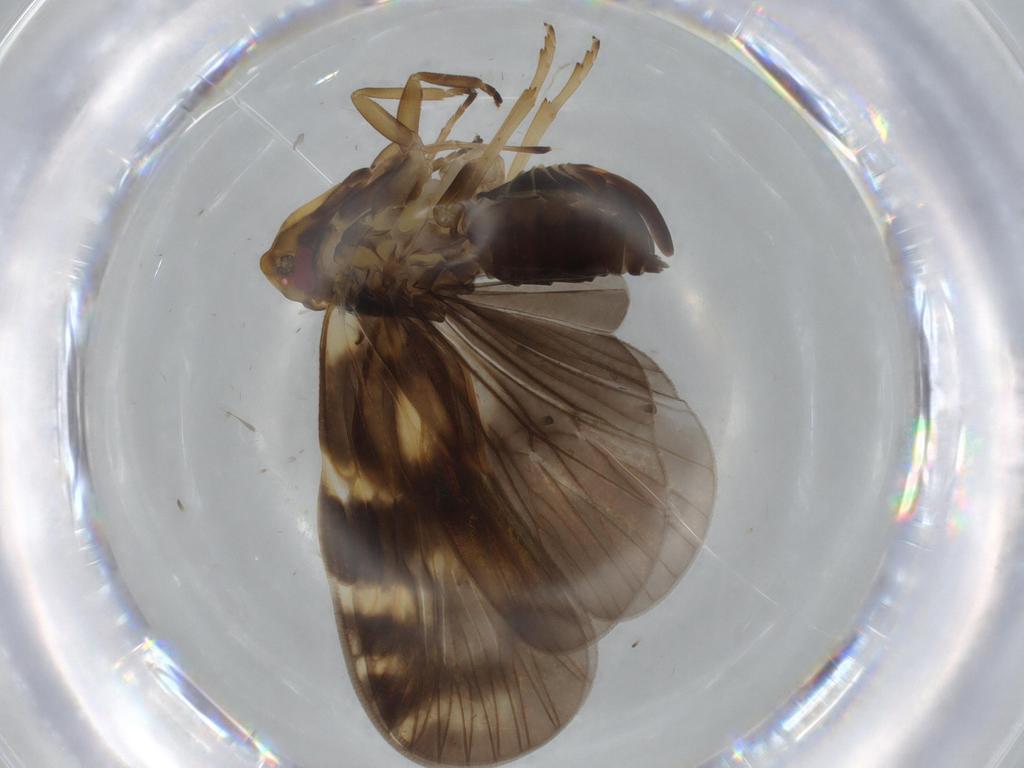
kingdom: Animalia
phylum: Arthropoda
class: Insecta
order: Hemiptera
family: Cixiidae
